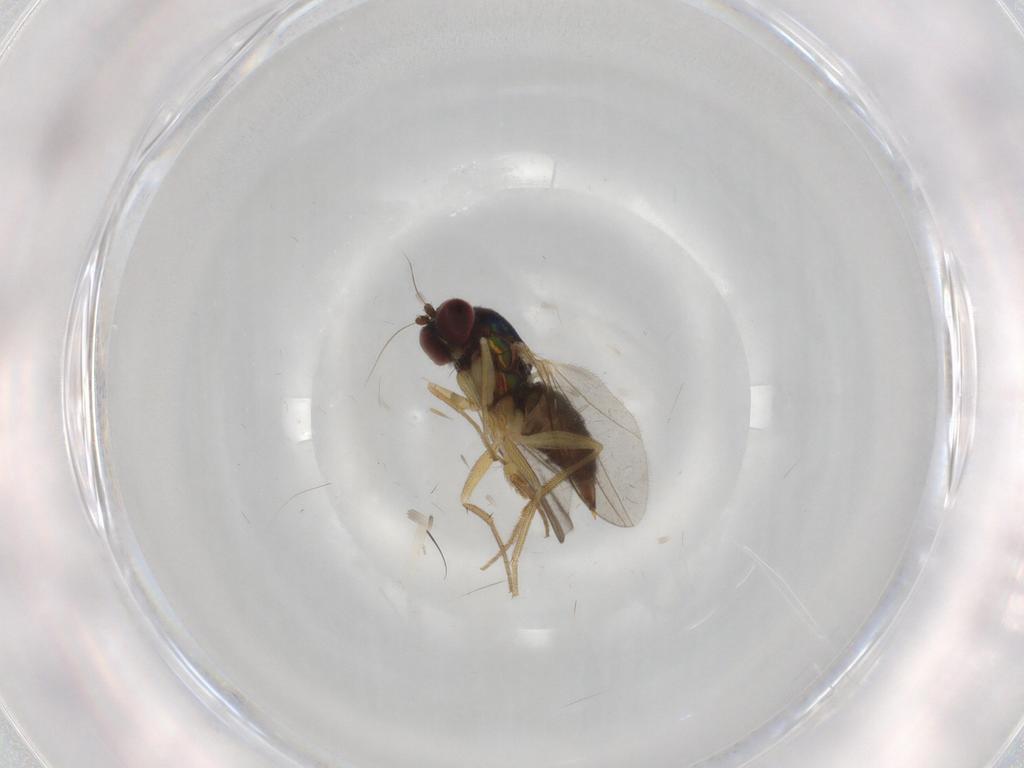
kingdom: Animalia
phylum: Arthropoda
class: Insecta
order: Diptera
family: Dolichopodidae
